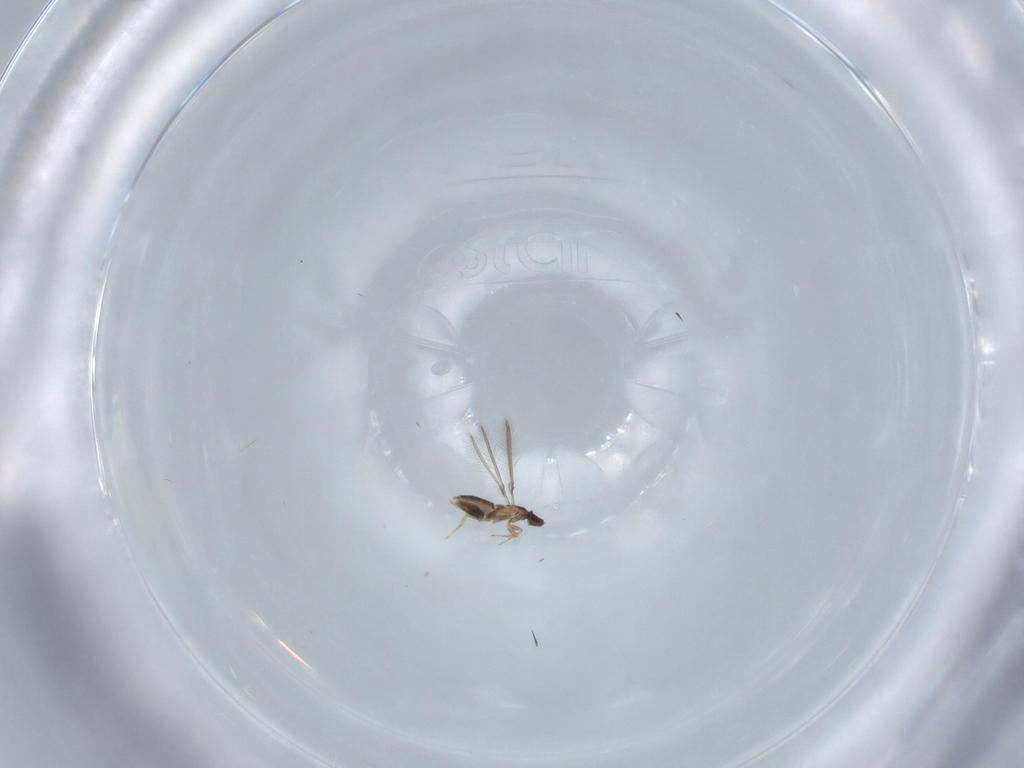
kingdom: Animalia
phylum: Arthropoda
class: Insecta
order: Hymenoptera
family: Mymaridae
